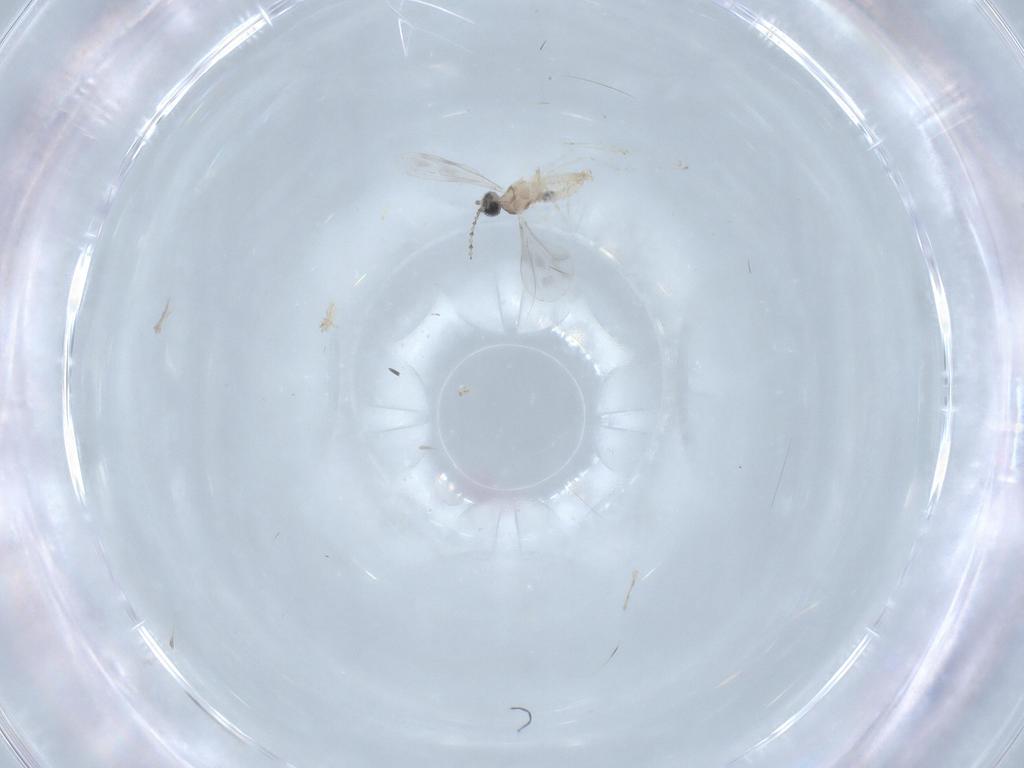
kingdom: Animalia
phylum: Arthropoda
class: Insecta
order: Diptera
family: Cecidomyiidae
